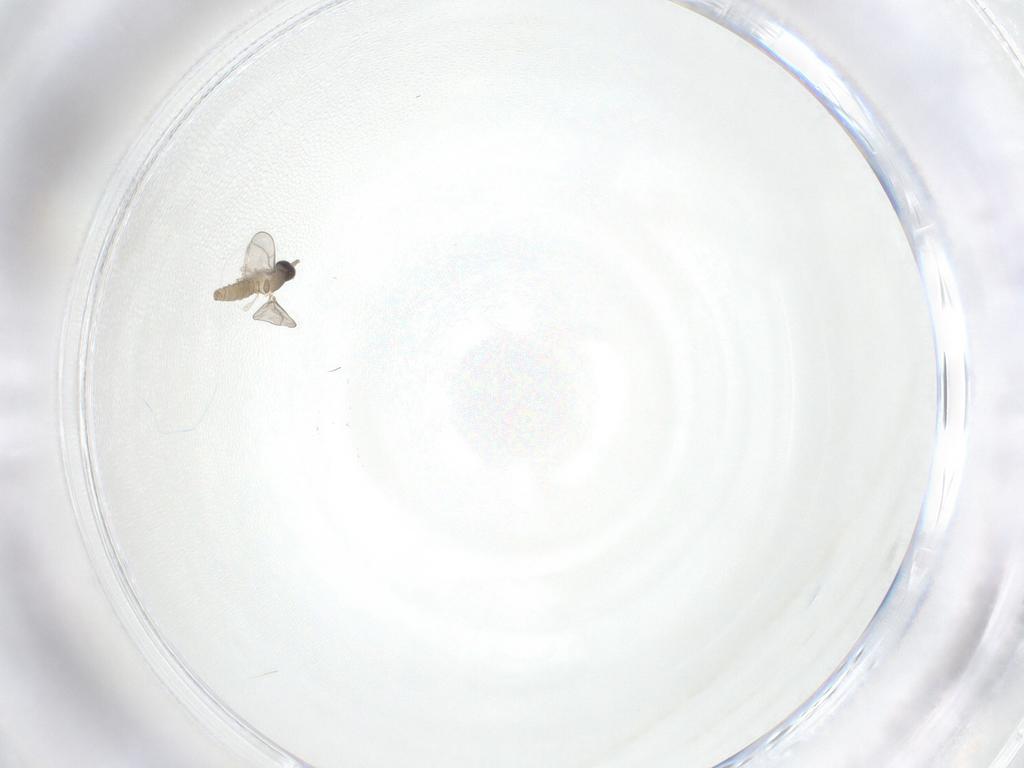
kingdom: Animalia
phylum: Arthropoda
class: Insecta
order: Diptera
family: Cecidomyiidae
